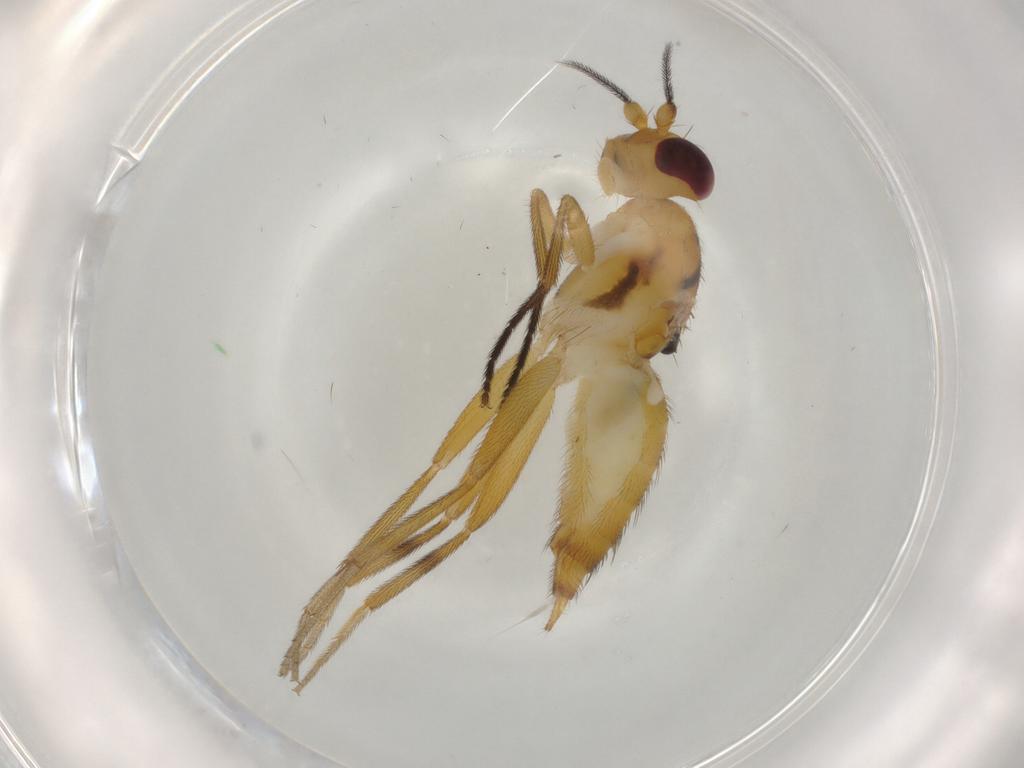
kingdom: Animalia
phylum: Arthropoda
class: Insecta
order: Diptera
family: Clusiidae
